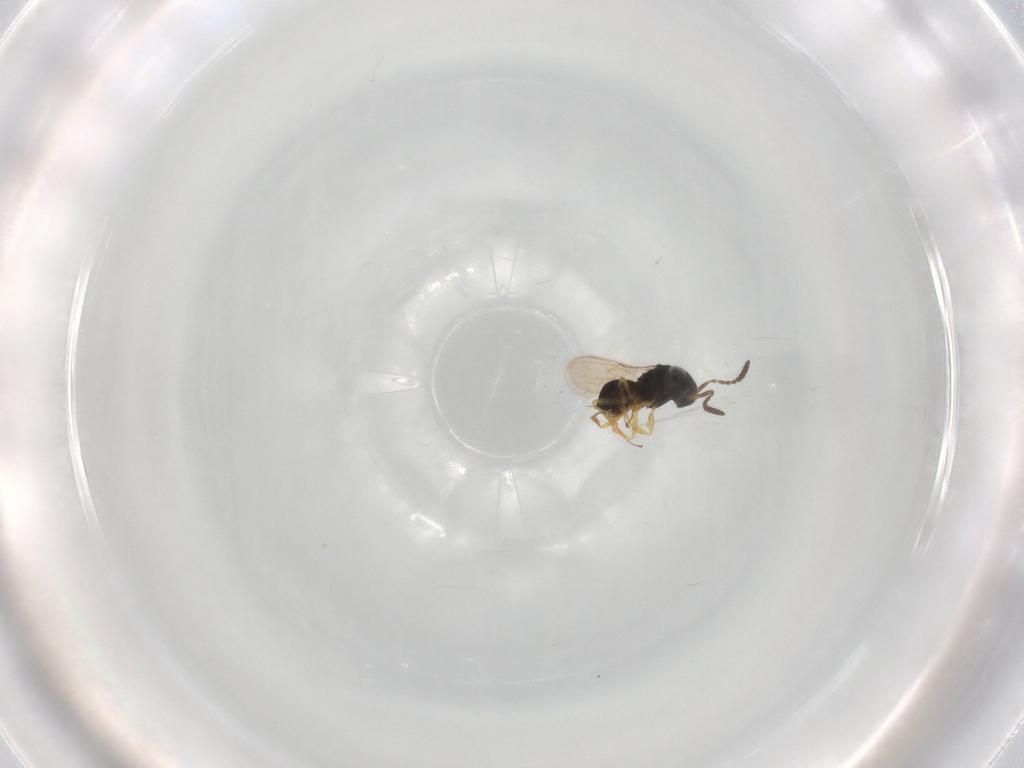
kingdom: Animalia
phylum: Arthropoda
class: Insecta
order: Hymenoptera
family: Scelionidae
